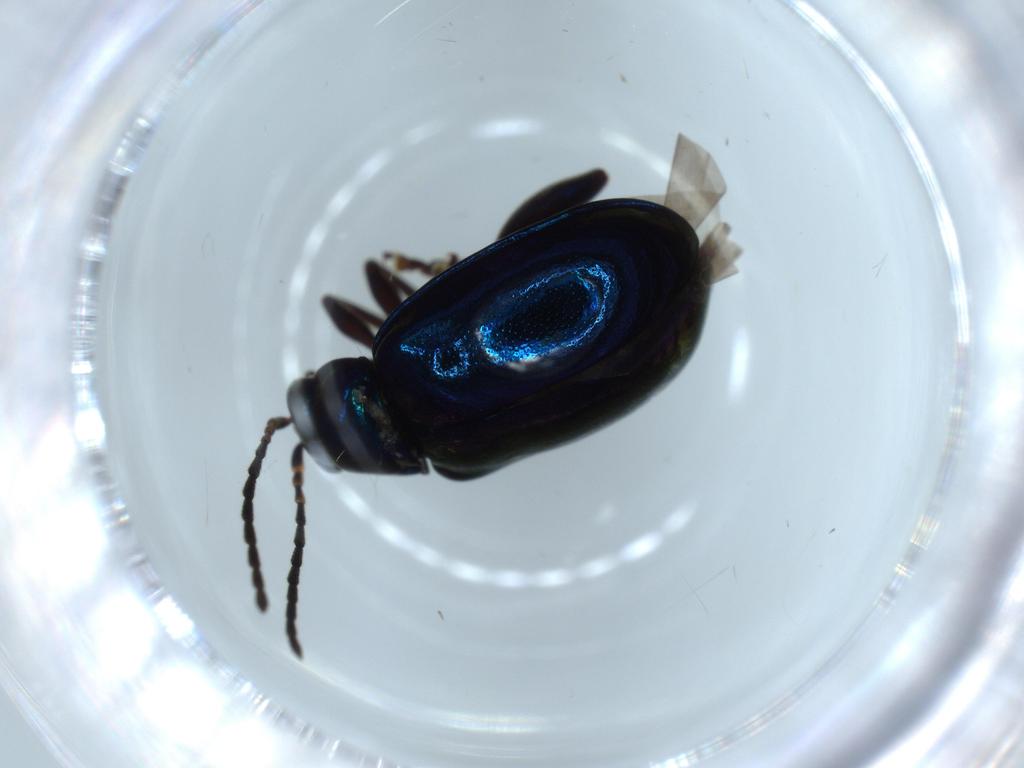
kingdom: Animalia
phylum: Arthropoda
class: Insecta
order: Coleoptera
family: Chrysomelidae
